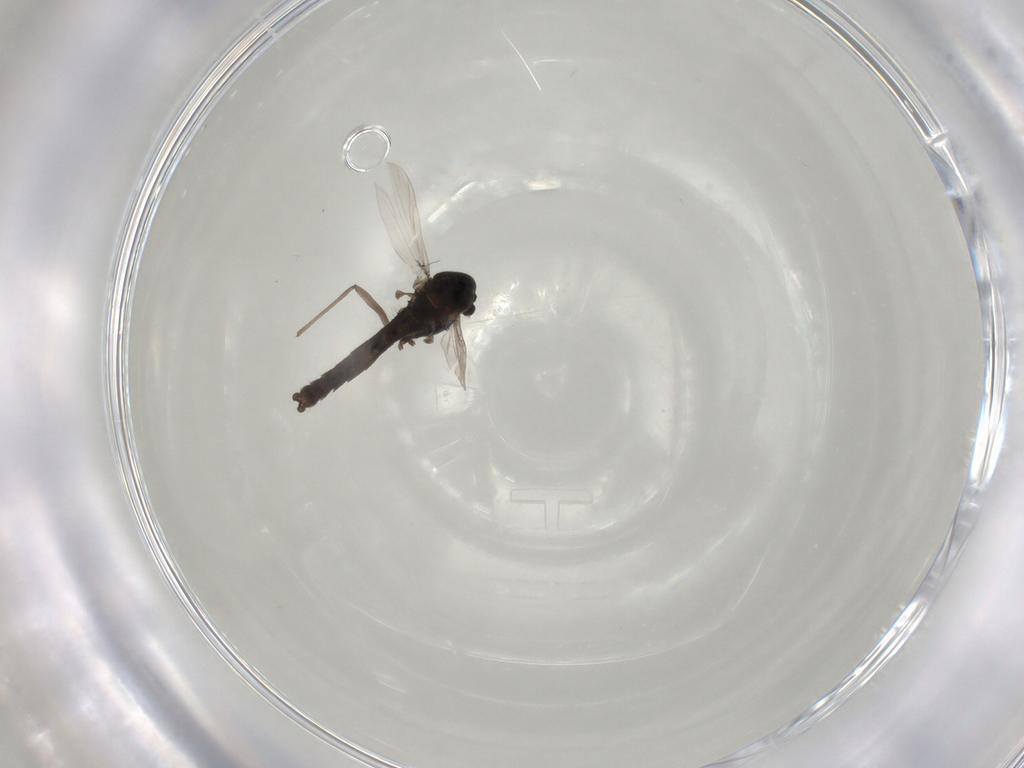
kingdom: Animalia
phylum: Arthropoda
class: Insecta
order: Diptera
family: Chironomidae
